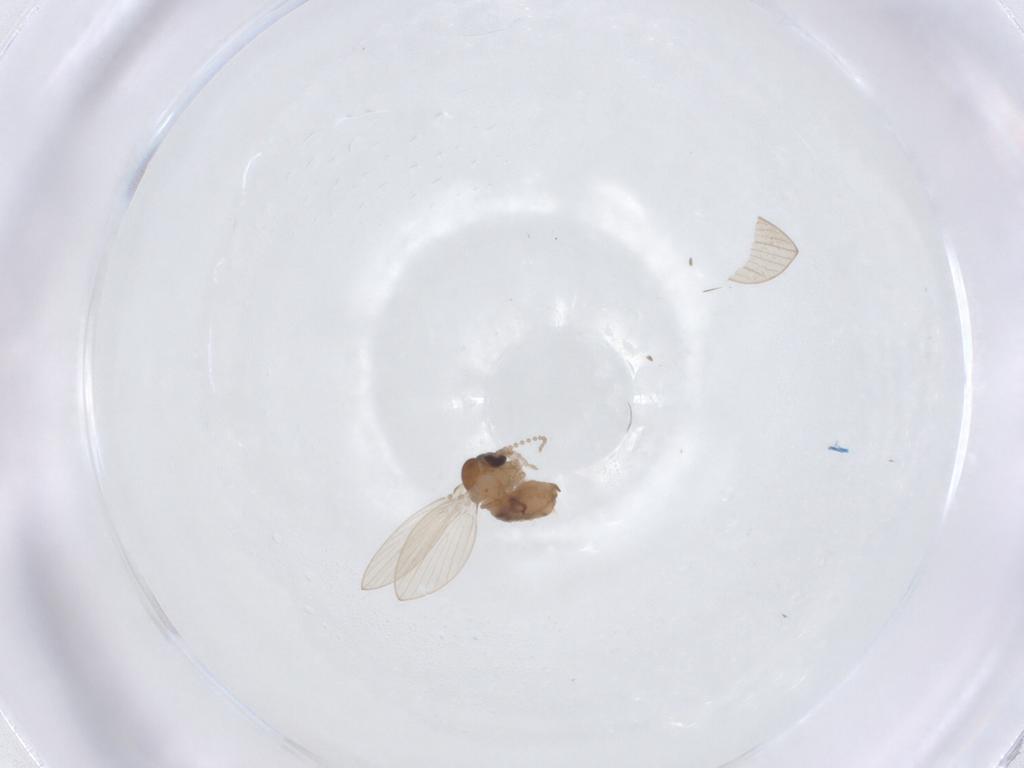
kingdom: Animalia
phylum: Arthropoda
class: Insecta
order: Diptera
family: Psychodidae
